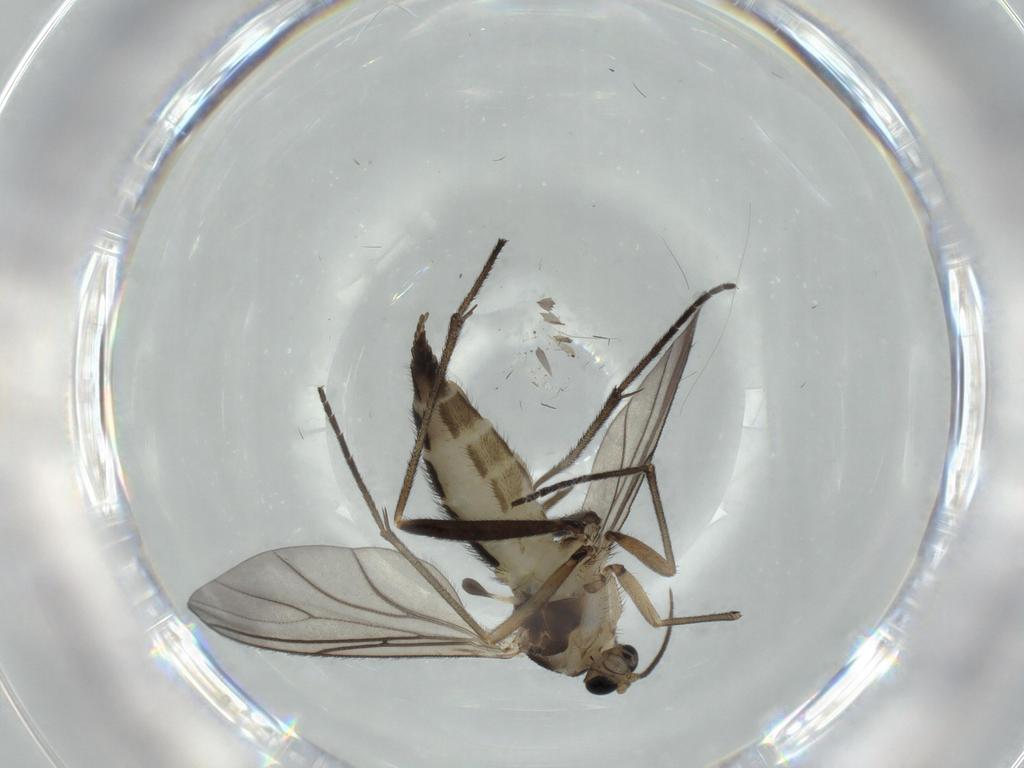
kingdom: Animalia
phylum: Arthropoda
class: Insecta
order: Diptera
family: Sciaridae
